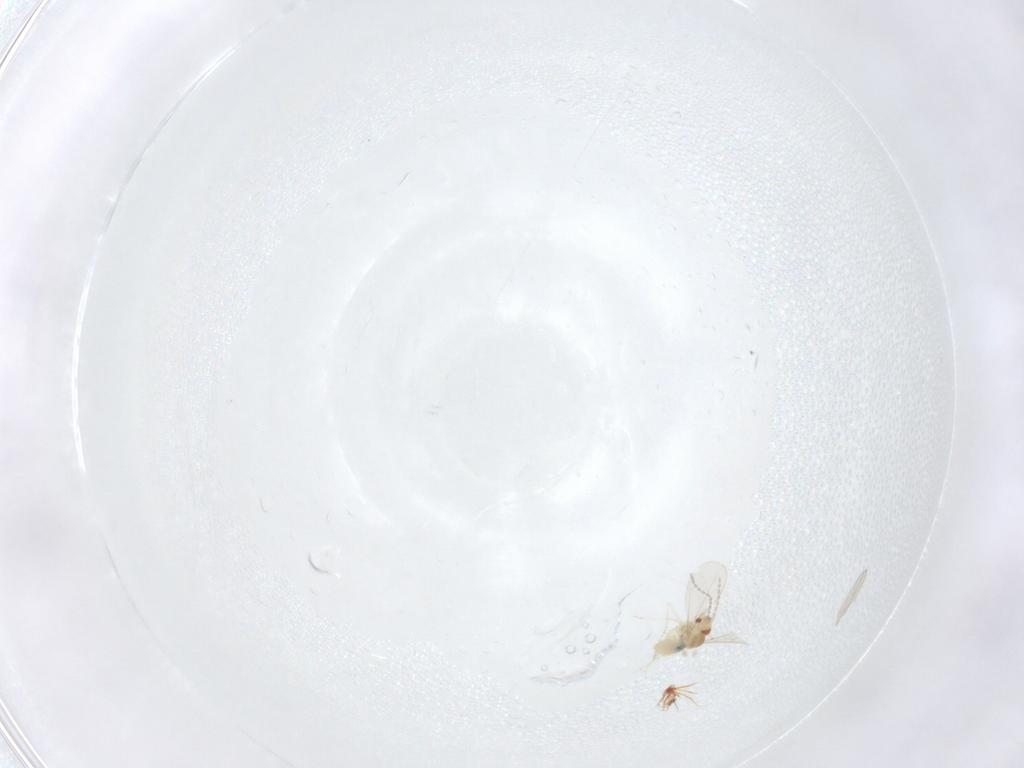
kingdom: Animalia
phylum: Arthropoda
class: Insecta
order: Diptera
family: Cecidomyiidae
